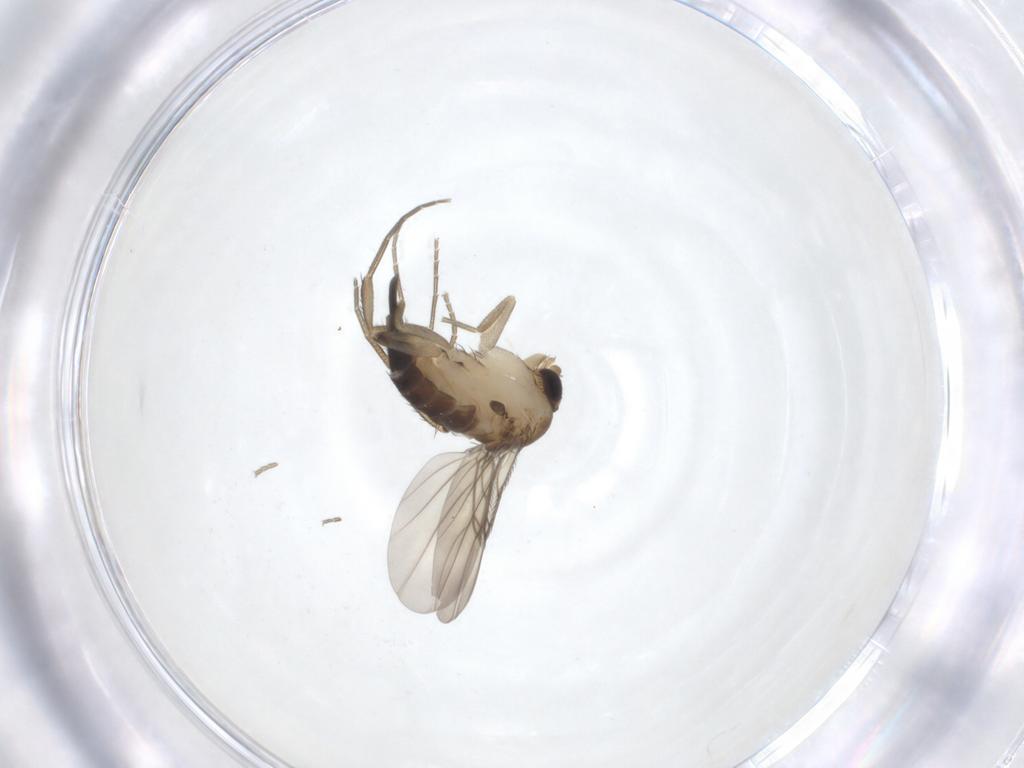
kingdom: Animalia
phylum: Arthropoda
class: Insecta
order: Diptera
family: Phoridae
